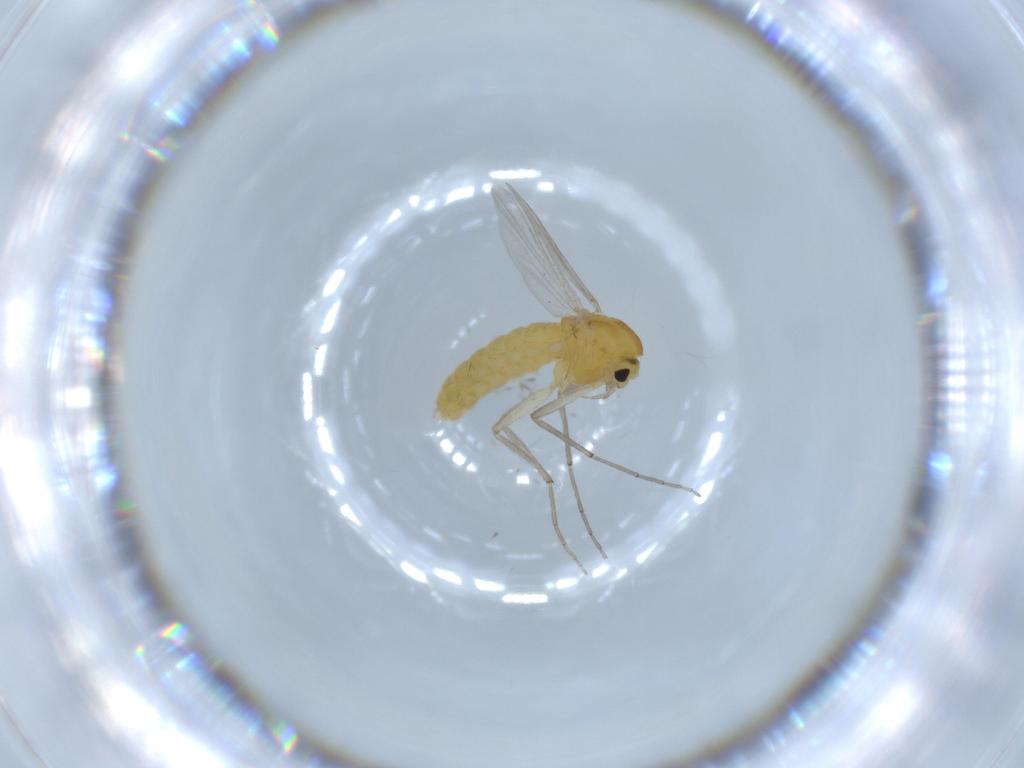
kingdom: Animalia
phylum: Arthropoda
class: Insecta
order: Diptera
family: Chironomidae
